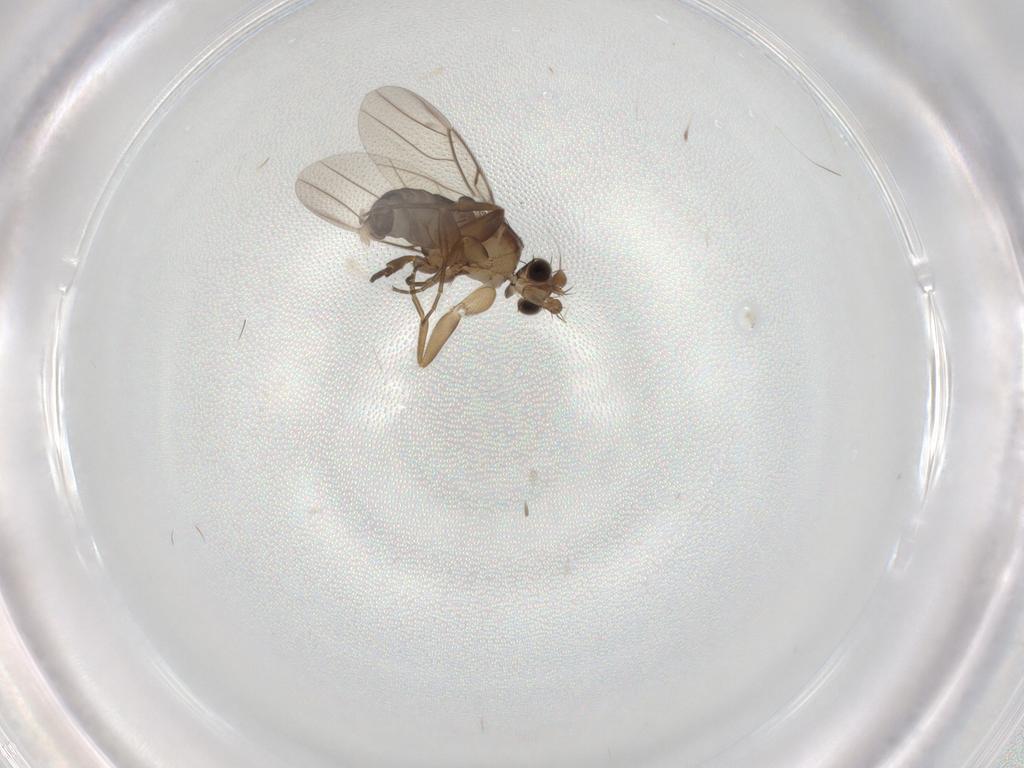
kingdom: Animalia
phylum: Arthropoda
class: Insecta
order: Diptera
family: Phoridae
